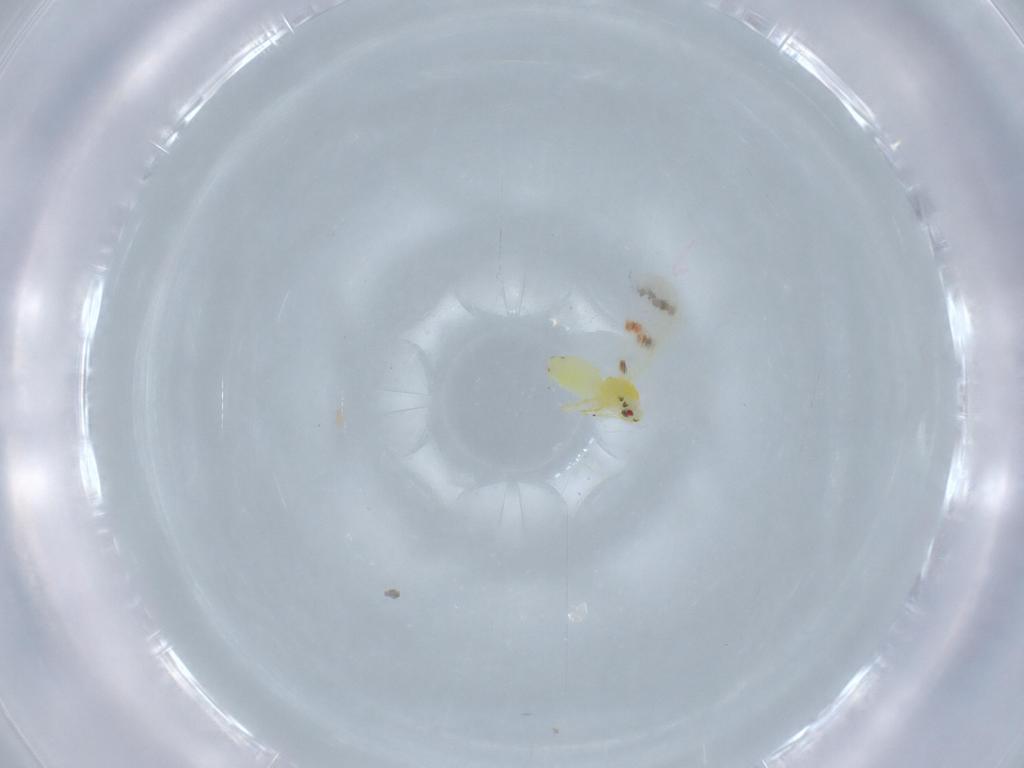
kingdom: Animalia
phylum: Arthropoda
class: Insecta
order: Hemiptera
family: Aleyrodidae
